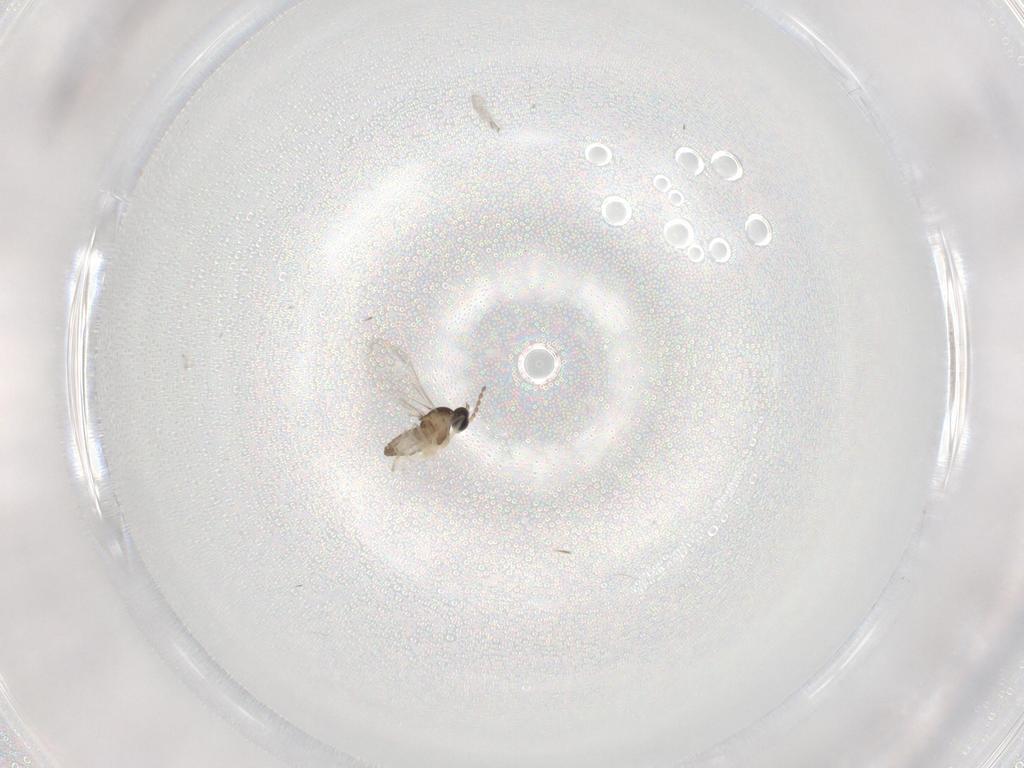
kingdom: Animalia
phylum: Arthropoda
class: Insecta
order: Diptera
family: Cecidomyiidae
